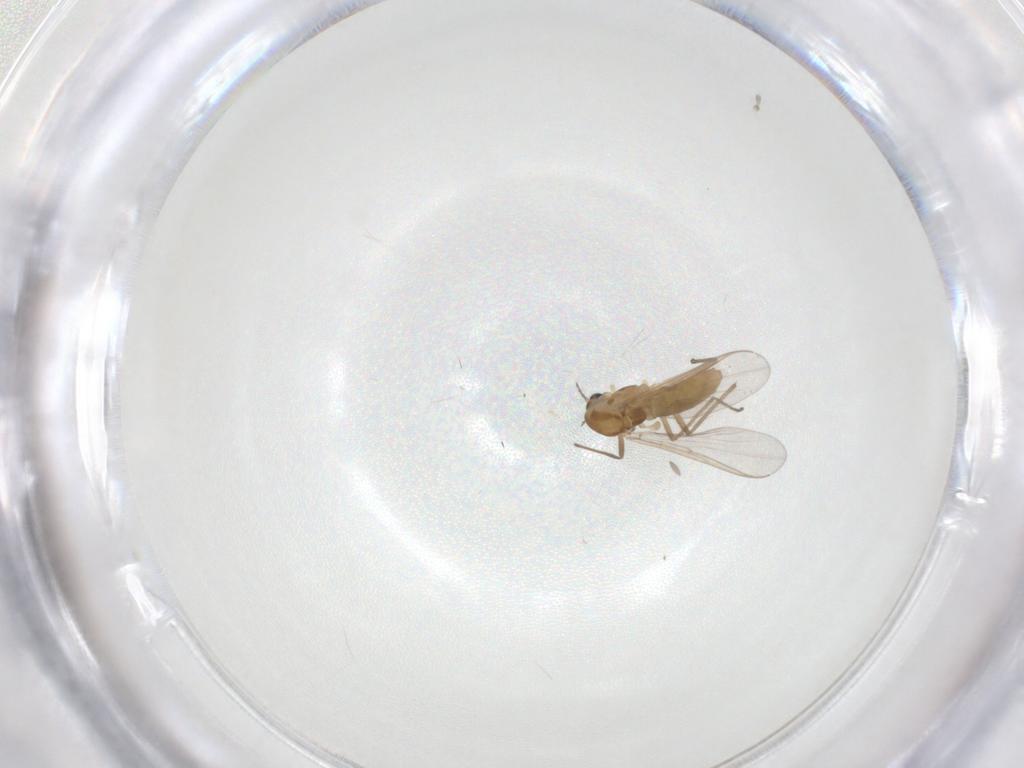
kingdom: Animalia
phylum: Arthropoda
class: Insecta
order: Diptera
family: Chironomidae
